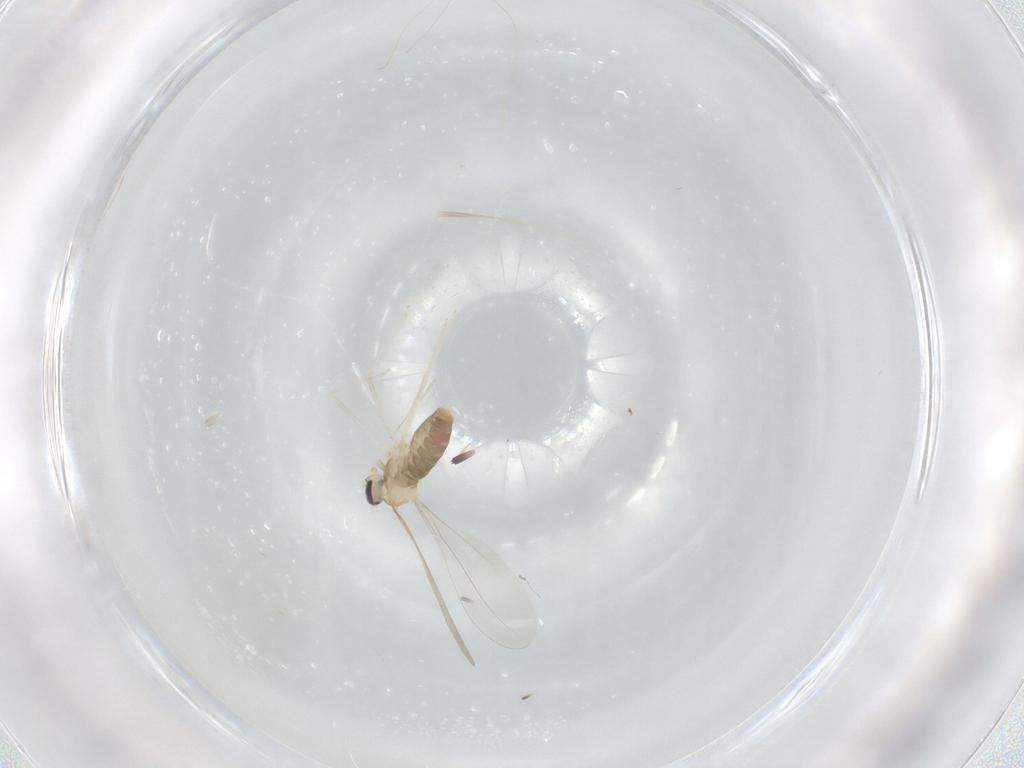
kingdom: Animalia
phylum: Arthropoda
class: Insecta
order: Diptera
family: Cecidomyiidae
